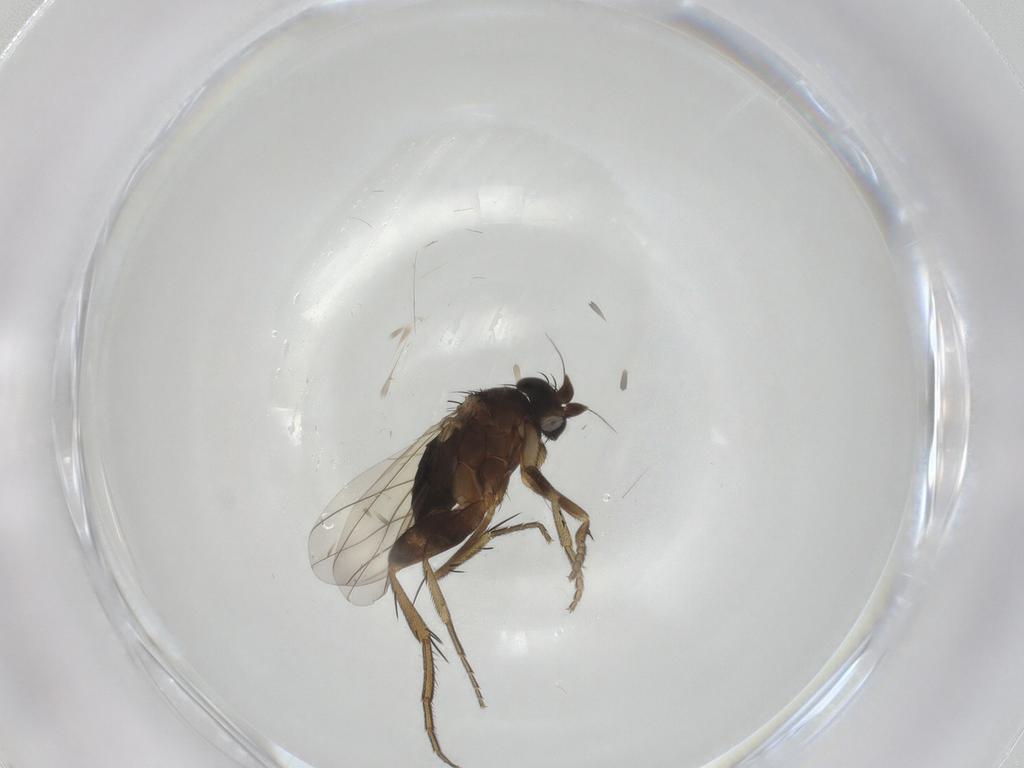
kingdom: Animalia
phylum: Arthropoda
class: Insecta
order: Diptera
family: Phoridae
